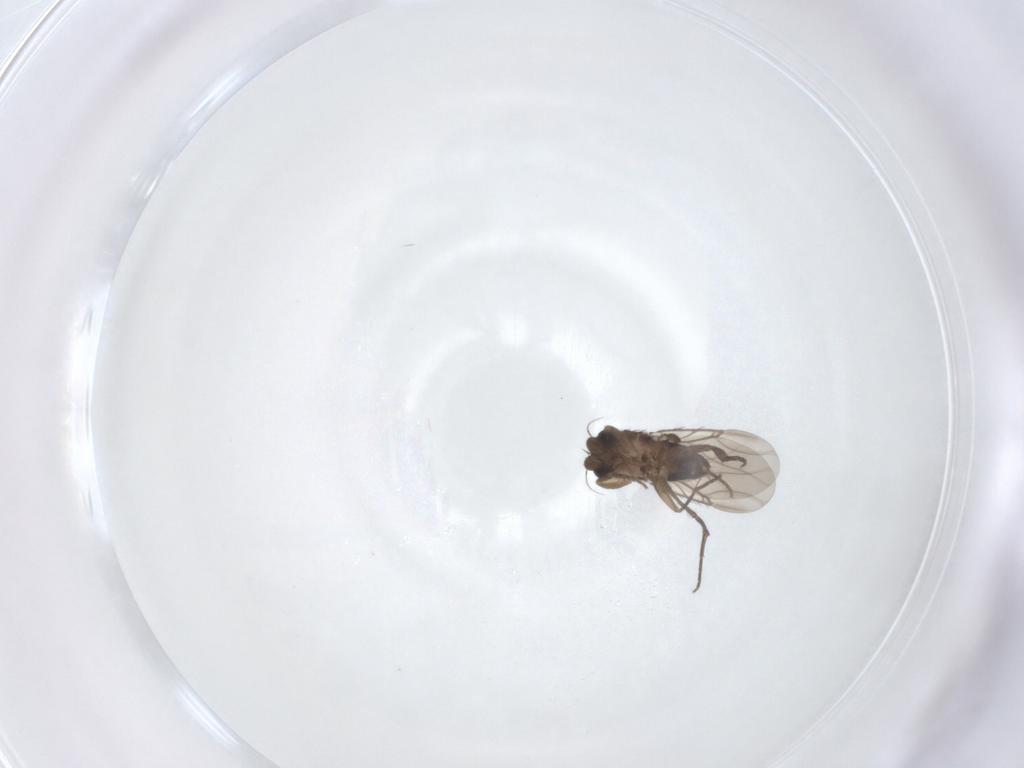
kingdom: Animalia
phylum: Arthropoda
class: Insecta
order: Diptera
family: Phoridae
